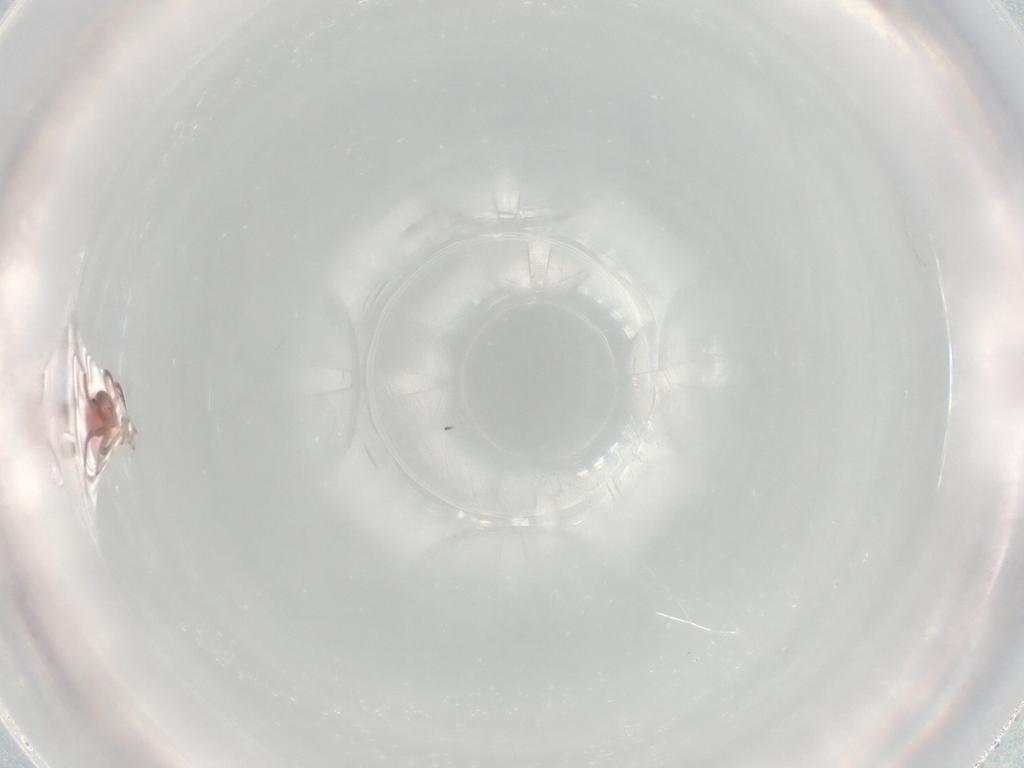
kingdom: Animalia
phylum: Arthropoda
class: Insecta
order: Hemiptera
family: Miridae
